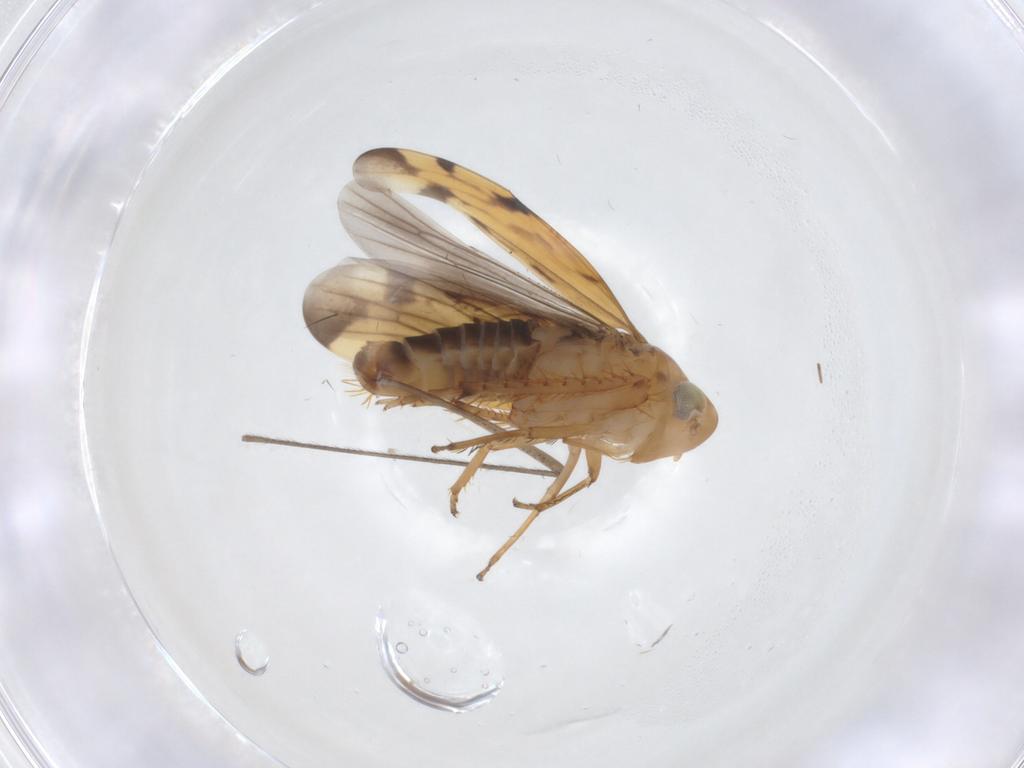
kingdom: Animalia
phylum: Arthropoda
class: Insecta
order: Hemiptera
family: Cicadellidae
